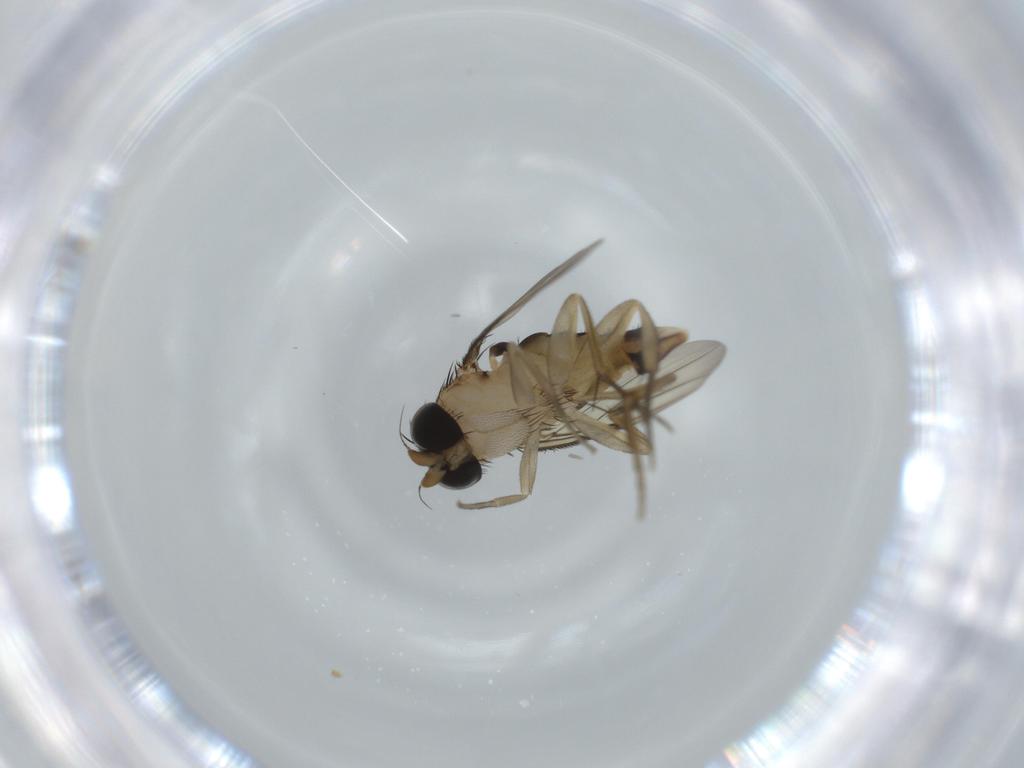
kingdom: Animalia
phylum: Arthropoda
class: Insecta
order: Diptera
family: Phoridae
